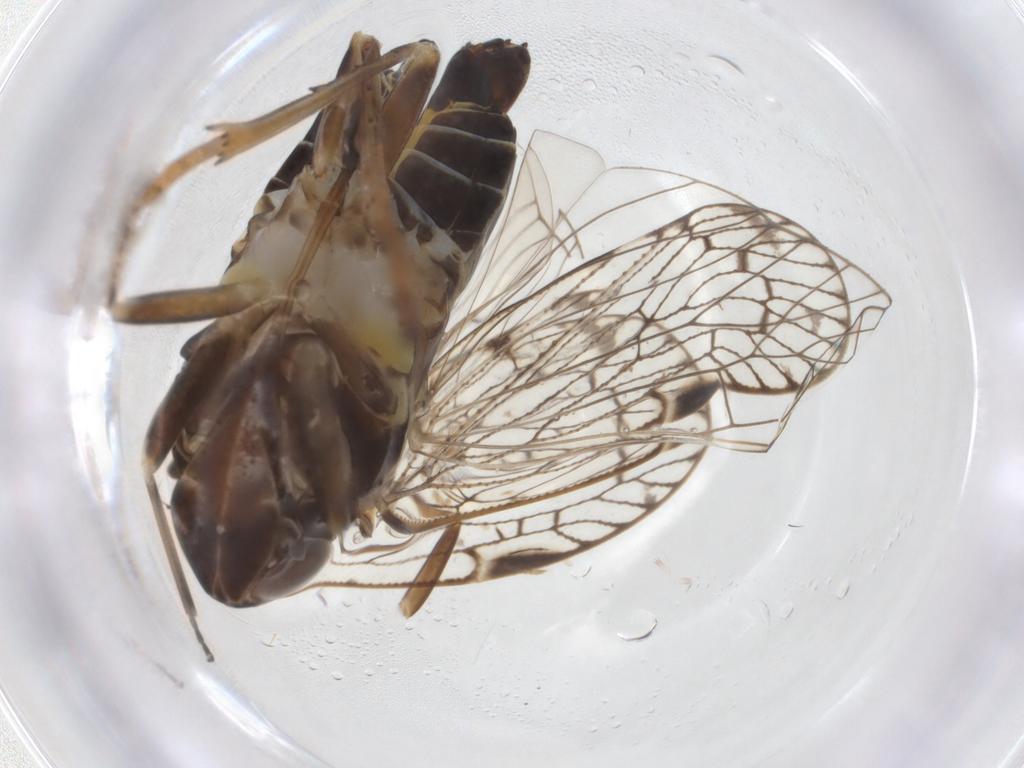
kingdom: Animalia
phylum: Arthropoda
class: Insecta
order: Hemiptera
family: Cixiidae
